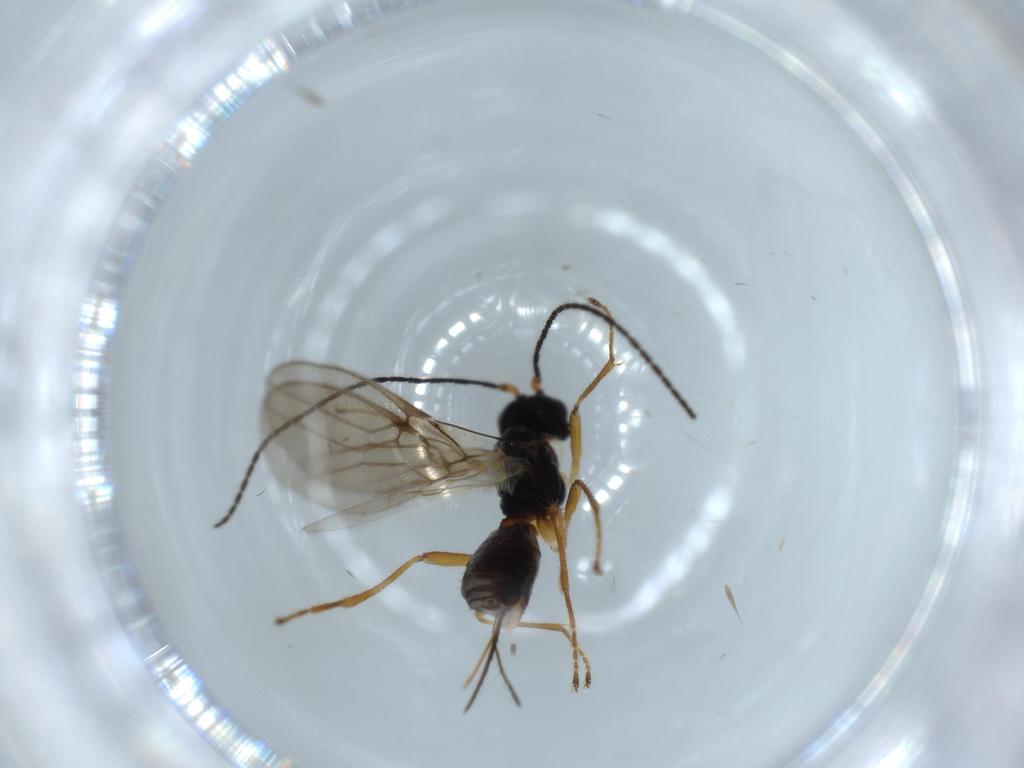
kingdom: Animalia
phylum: Arthropoda
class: Insecta
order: Hymenoptera
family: Braconidae
